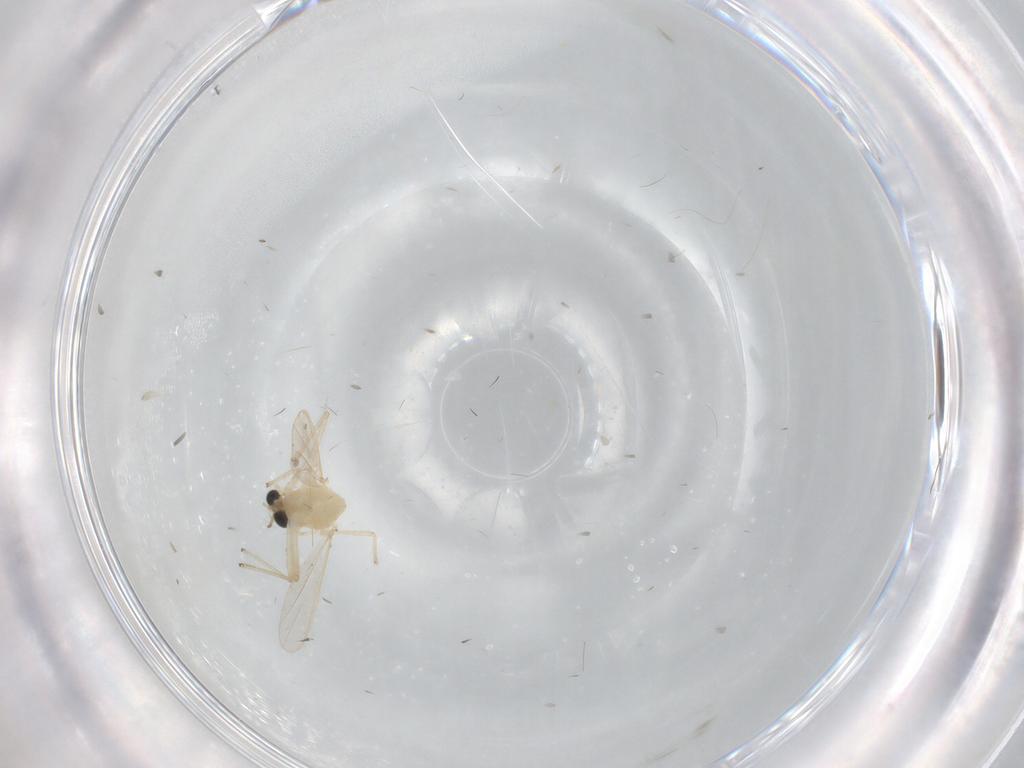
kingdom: Animalia
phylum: Arthropoda
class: Insecta
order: Diptera
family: Chironomidae
